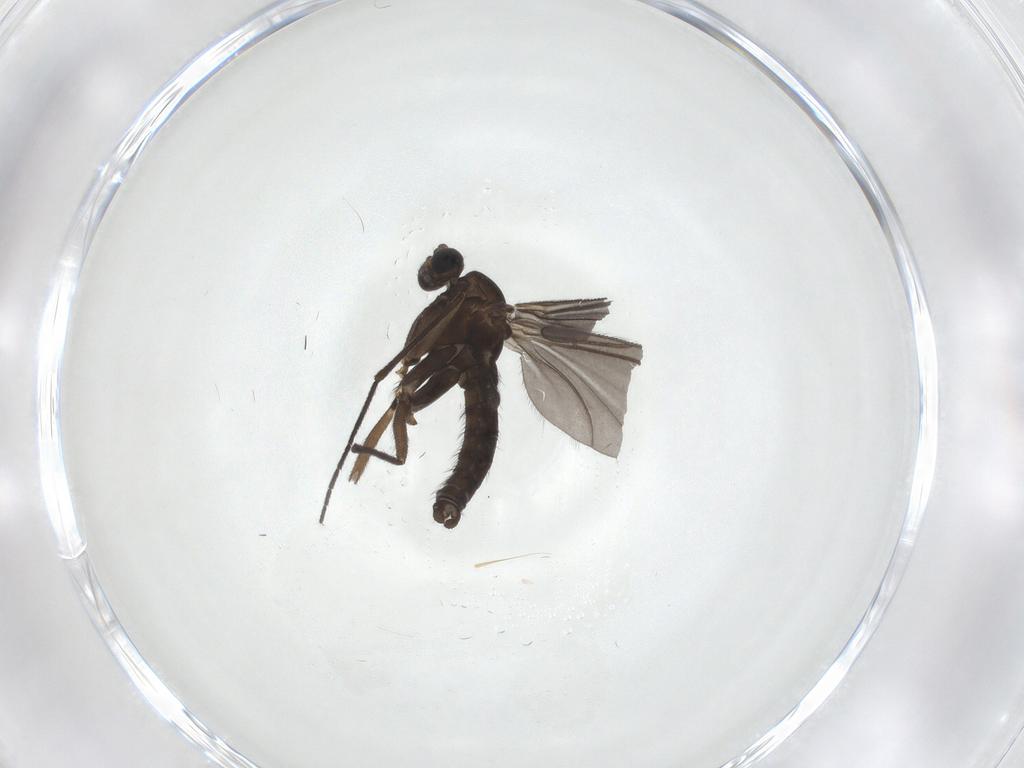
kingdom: Animalia
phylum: Arthropoda
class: Insecta
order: Diptera
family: Sciaridae
